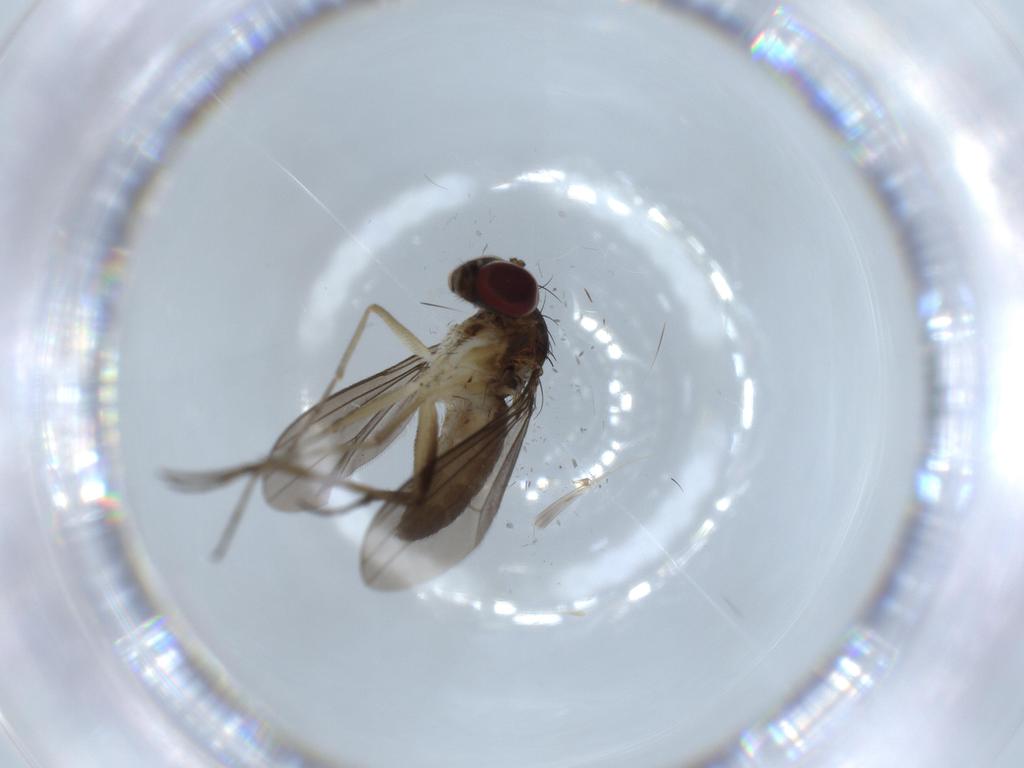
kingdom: Animalia
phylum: Arthropoda
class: Insecta
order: Diptera
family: Dolichopodidae
